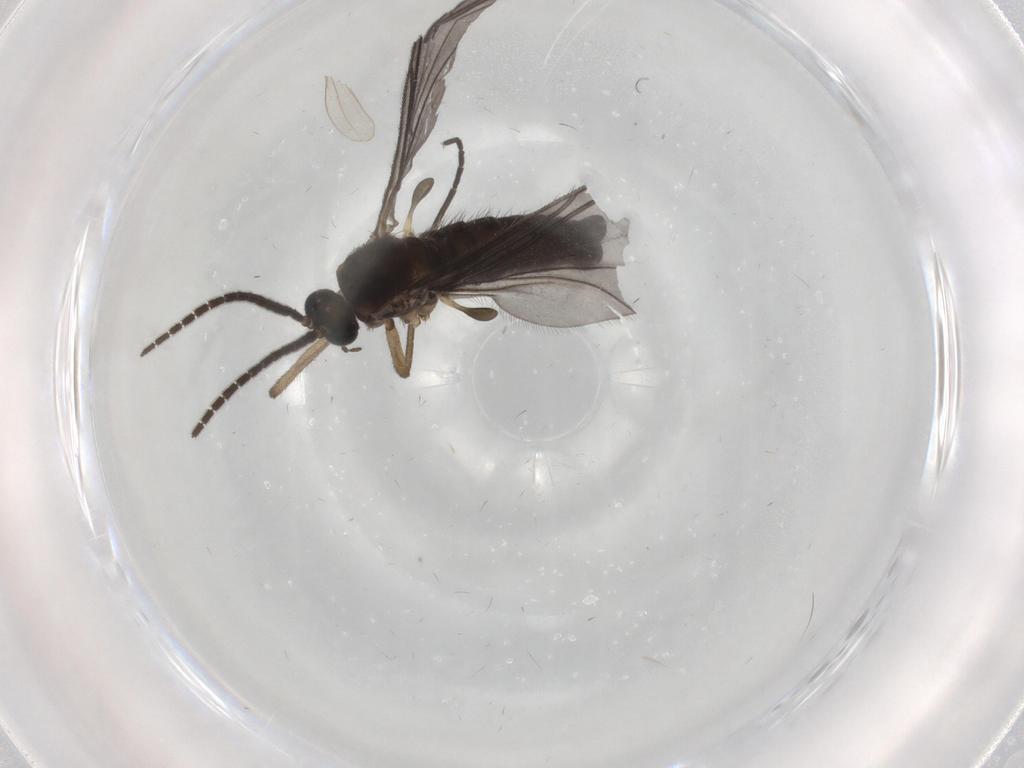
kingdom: Animalia
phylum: Arthropoda
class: Insecta
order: Diptera
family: Sciaridae
